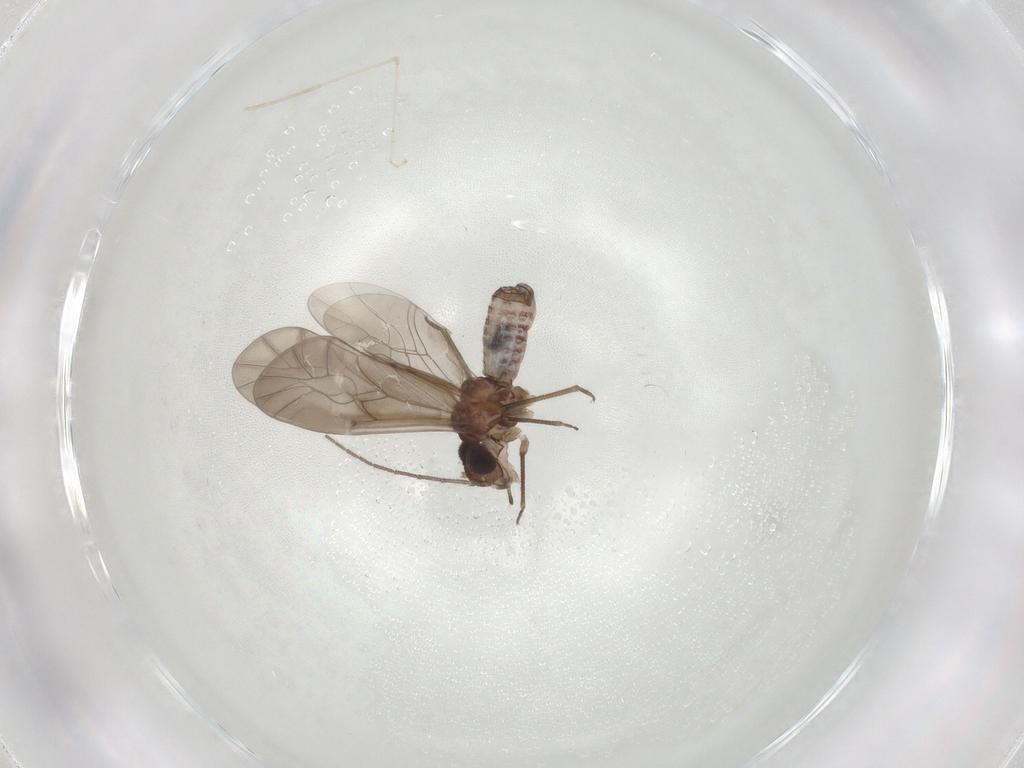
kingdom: Animalia
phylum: Arthropoda
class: Insecta
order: Psocodea
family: Peripsocidae
